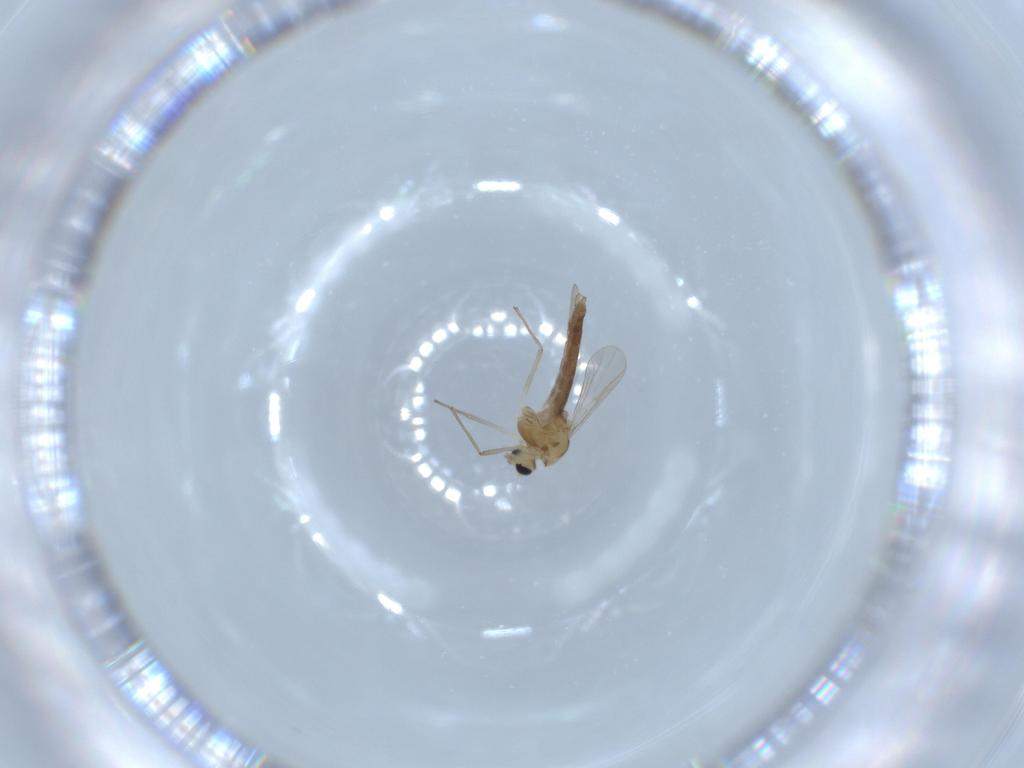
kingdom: Animalia
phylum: Arthropoda
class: Insecta
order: Diptera
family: Chironomidae
